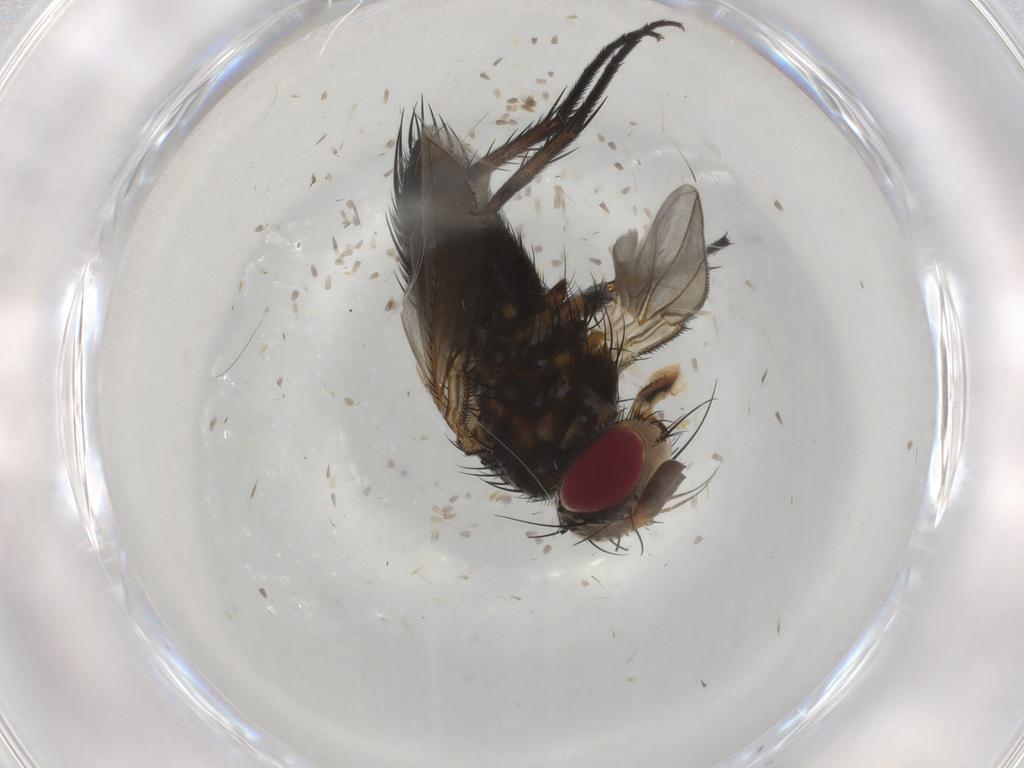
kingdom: Animalia
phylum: Arthropoda
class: Insecta
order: Diptera
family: Tachinidae
